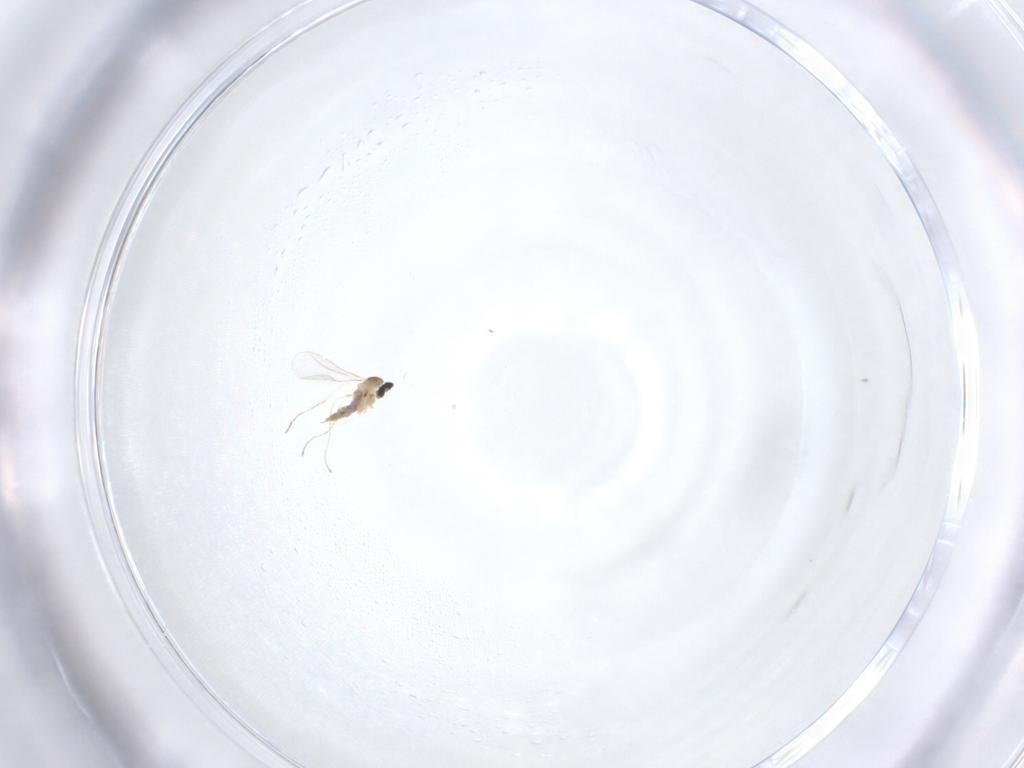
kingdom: Animalia
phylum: Arthropoda
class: Insecta
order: Diptera
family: Cecidomyiidae
